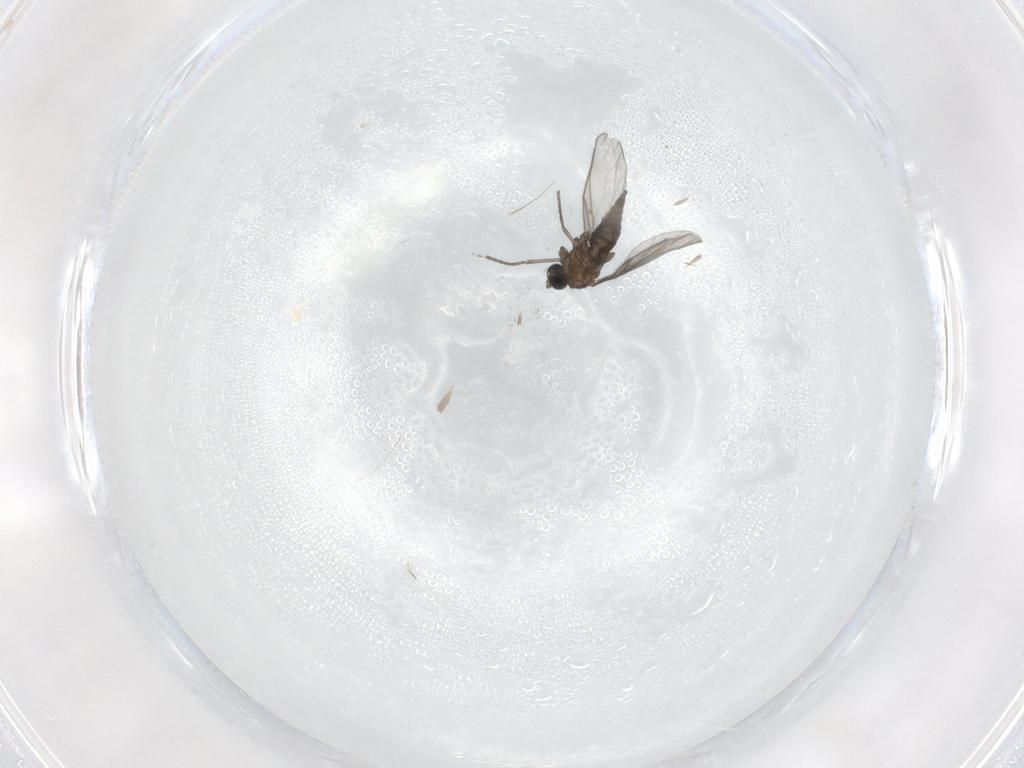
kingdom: Animalia
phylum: Arthropoda
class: Insecta
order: Diptera
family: Sciaridae
